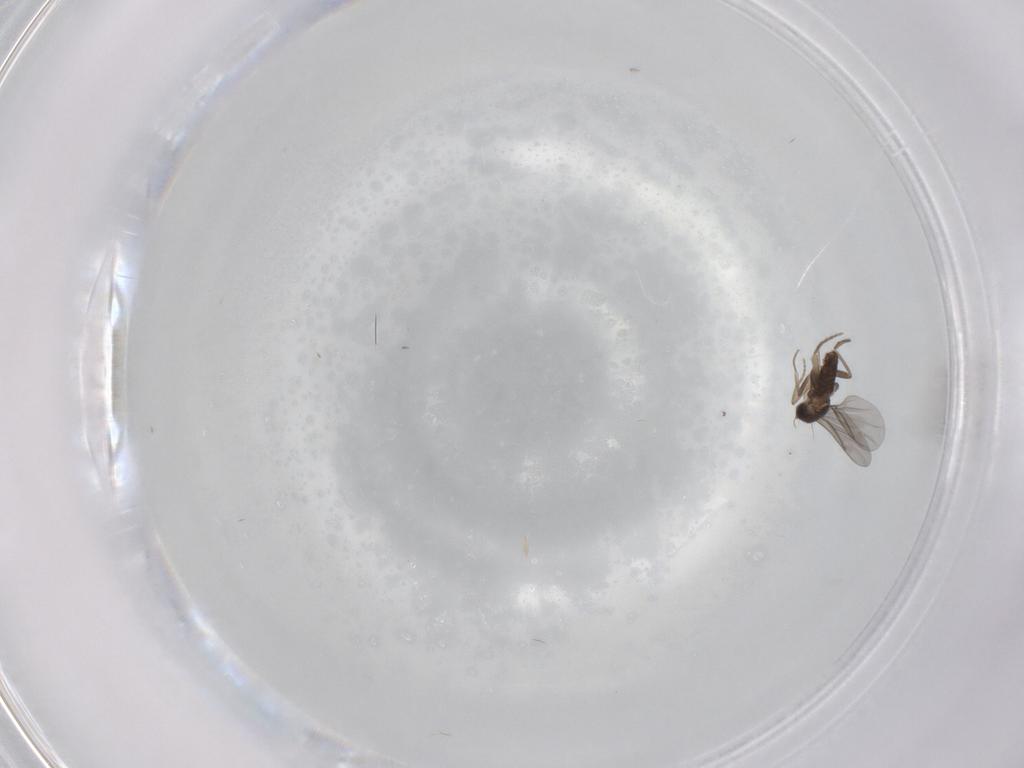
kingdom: Animalia
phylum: Arthropoda
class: Insecta
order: Diptera
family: Phoridae
